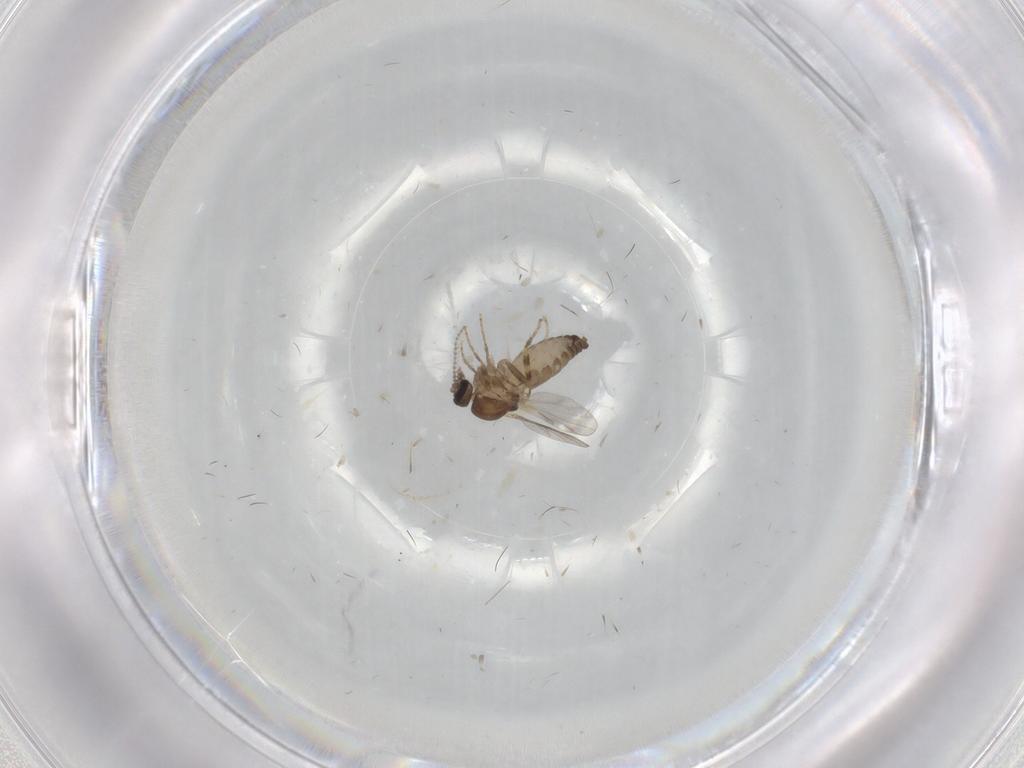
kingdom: Animalia
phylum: Arthropoda
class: Insecta
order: Diptera
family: Ceratopogonidae
